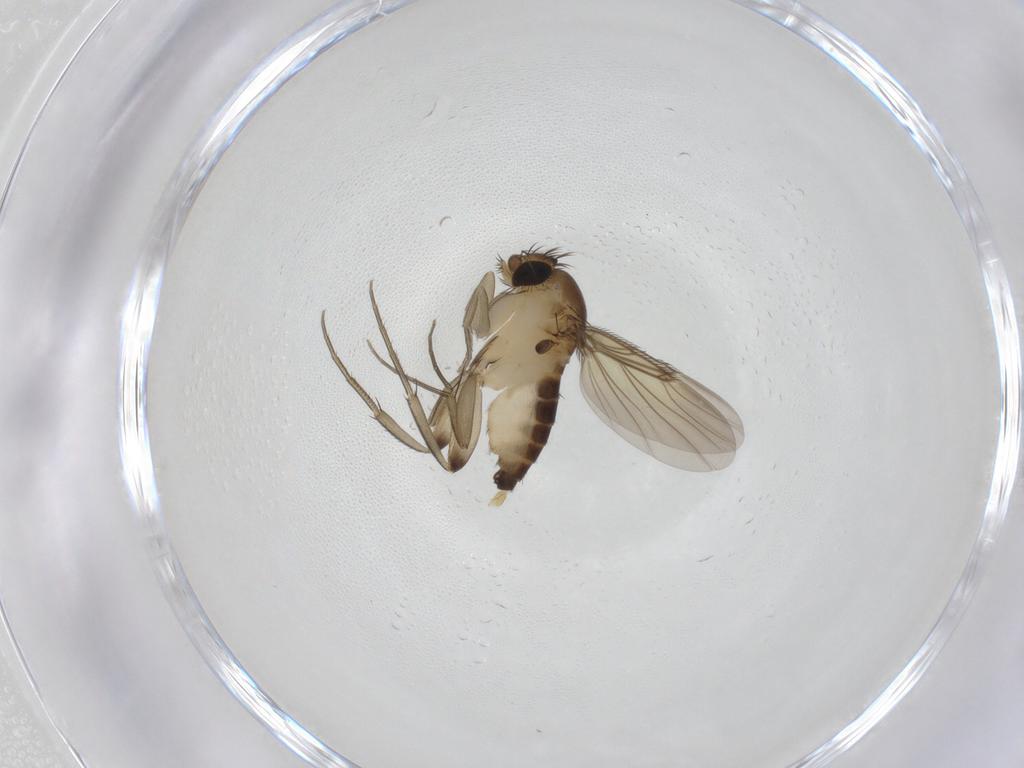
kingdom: Animalia
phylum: Arthropoda
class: Insecta
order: Diptera
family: Phoridae
